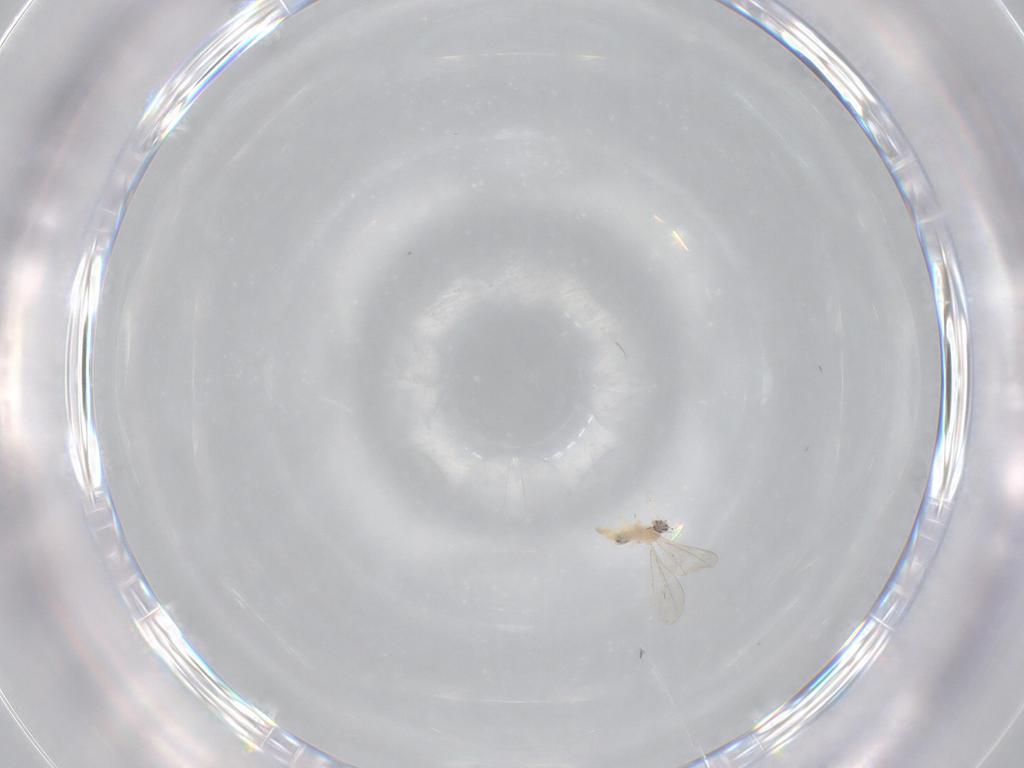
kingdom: Animalia
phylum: Arthropoda
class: Insecta
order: Diptera
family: Cecidomyiidae
